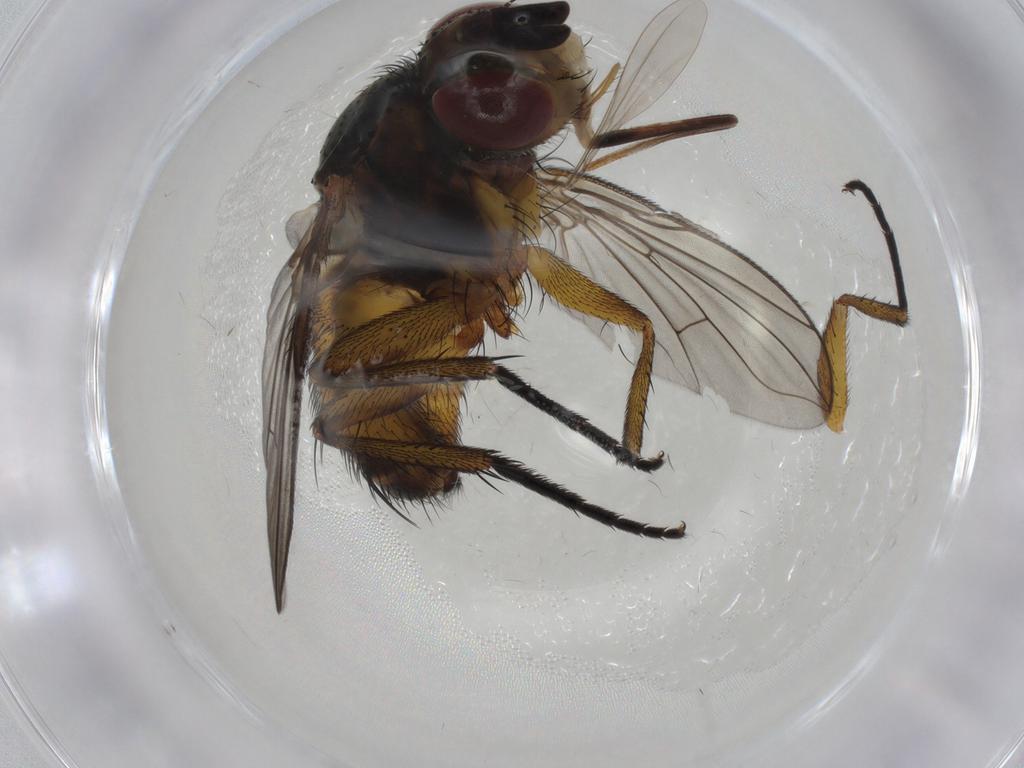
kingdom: Animalia
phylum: Arthropoda
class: Insecta
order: Diptera
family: Tachinidae
